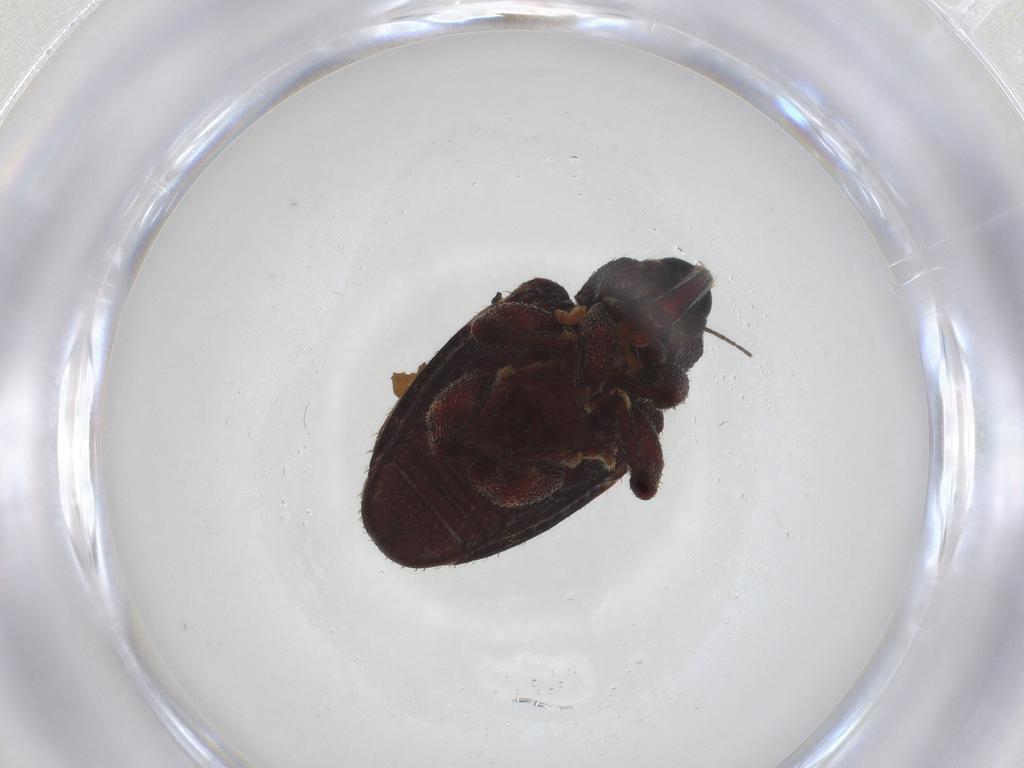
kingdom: Animalia
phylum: Arthropoda
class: Insecta
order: Coleoptera
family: Curculionidae
